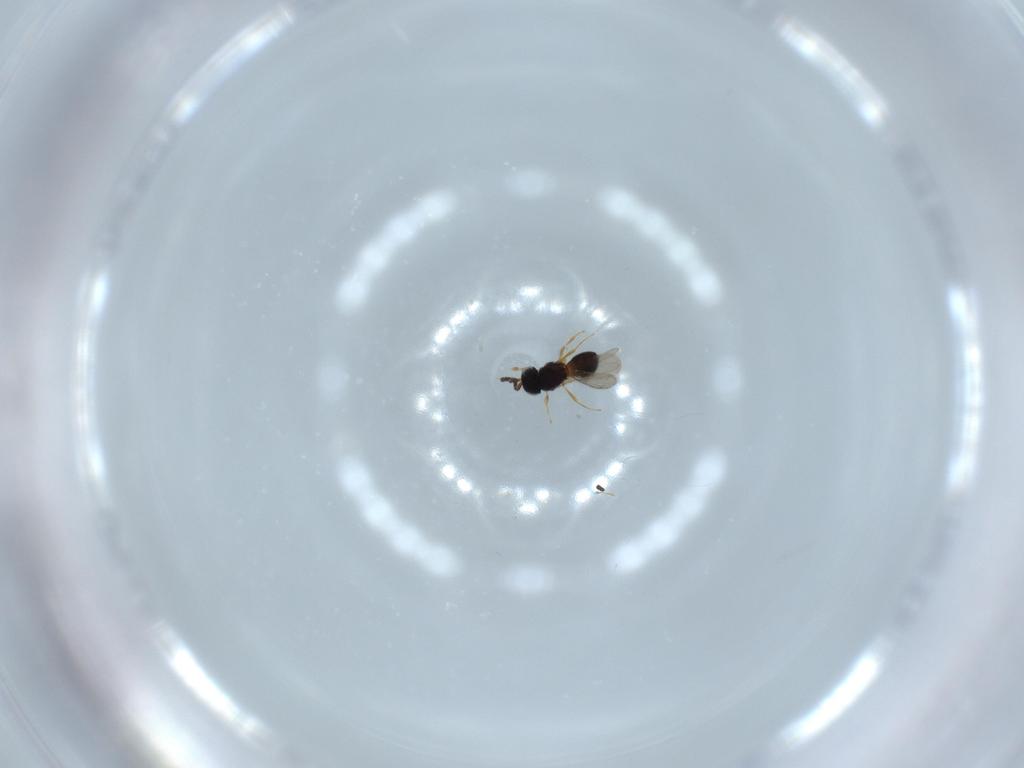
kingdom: Animalia
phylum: Arthropoda
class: Insecta
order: Hymenoptera
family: Scelionidae
